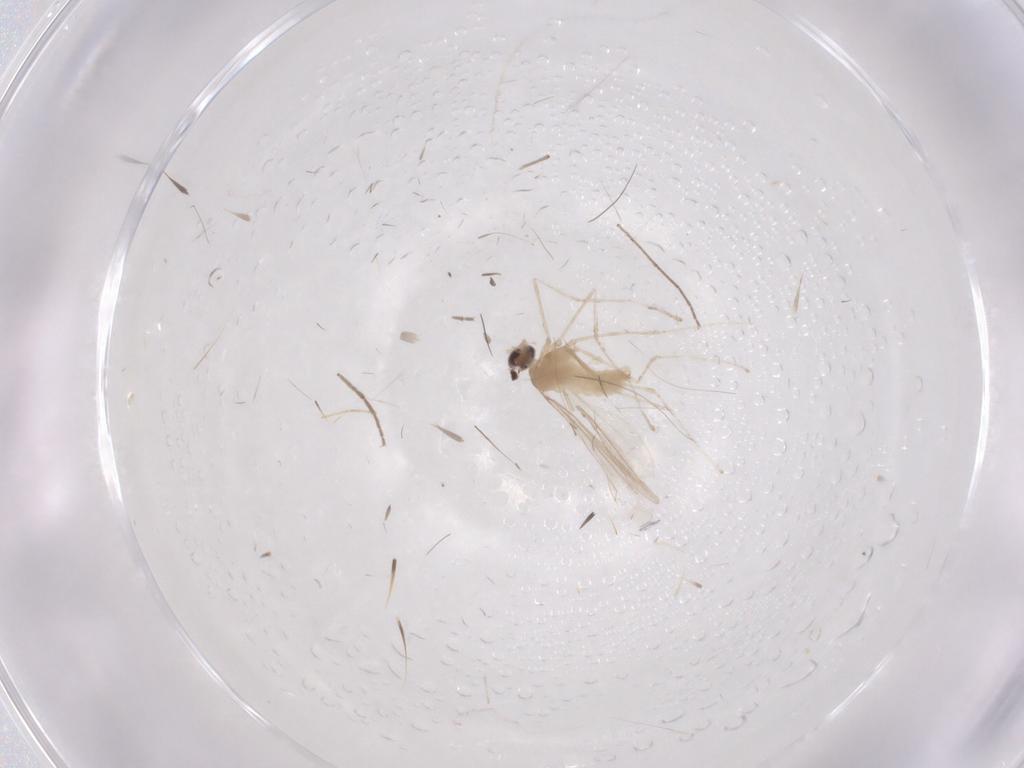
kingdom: Animalia
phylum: Arthropoda
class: Insecta
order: Diptera
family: Cecidomyiidae
